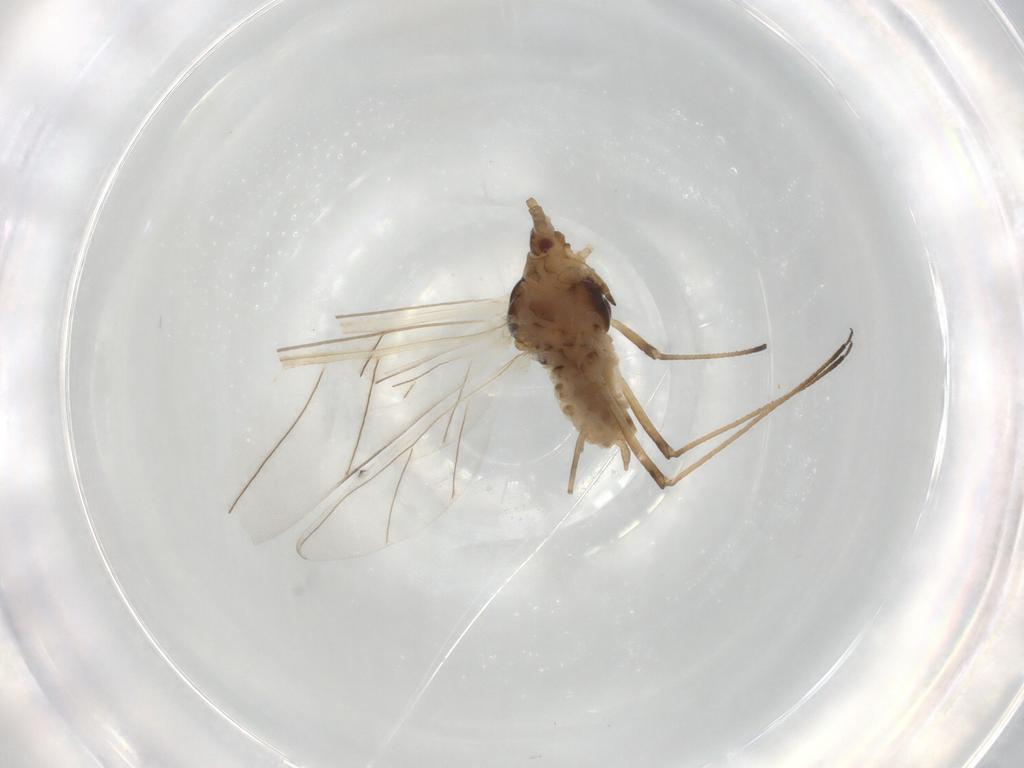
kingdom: Animalia
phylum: Arthropoda
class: Insecta
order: Hemiptera
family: Aphididae
